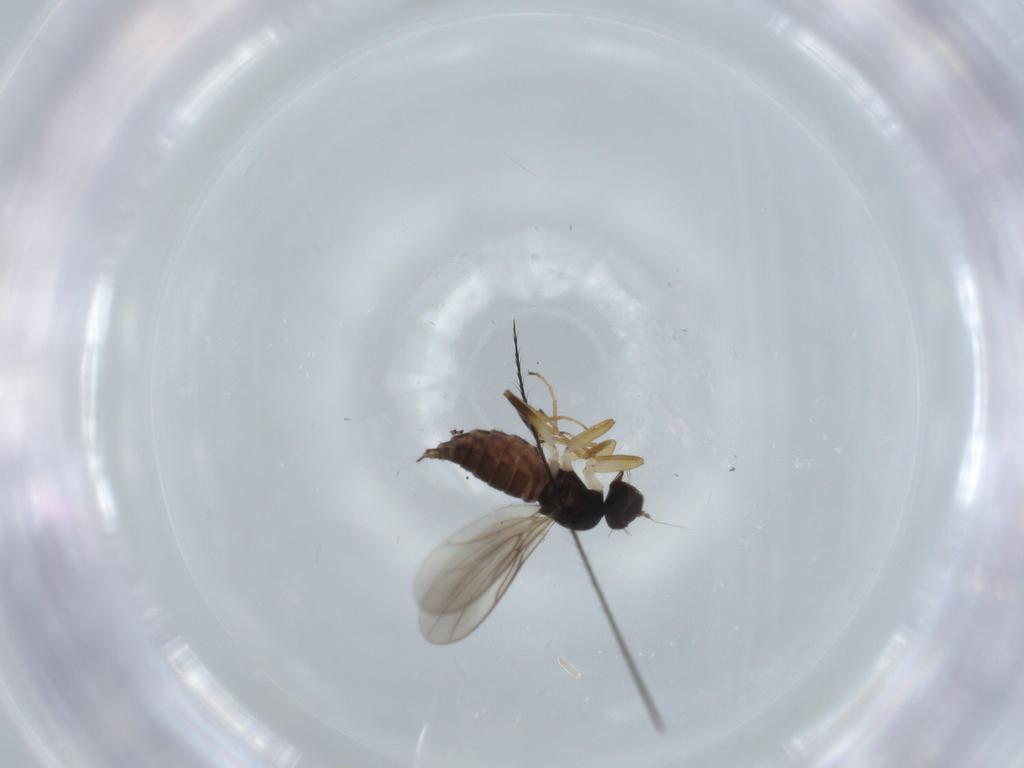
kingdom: Animalia
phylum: Arthropoda
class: Insecta
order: Diptera
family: Hybotidae
